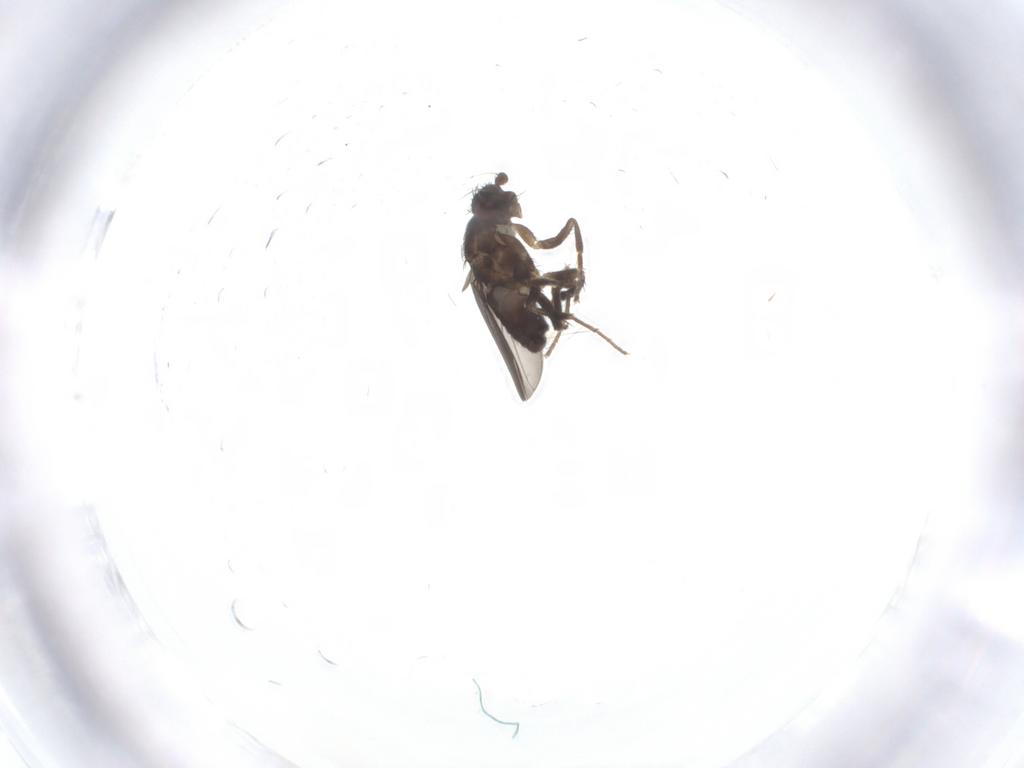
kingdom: Animalia
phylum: Arthropoda
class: Insecta
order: Diptera
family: Sphaeroceridae
